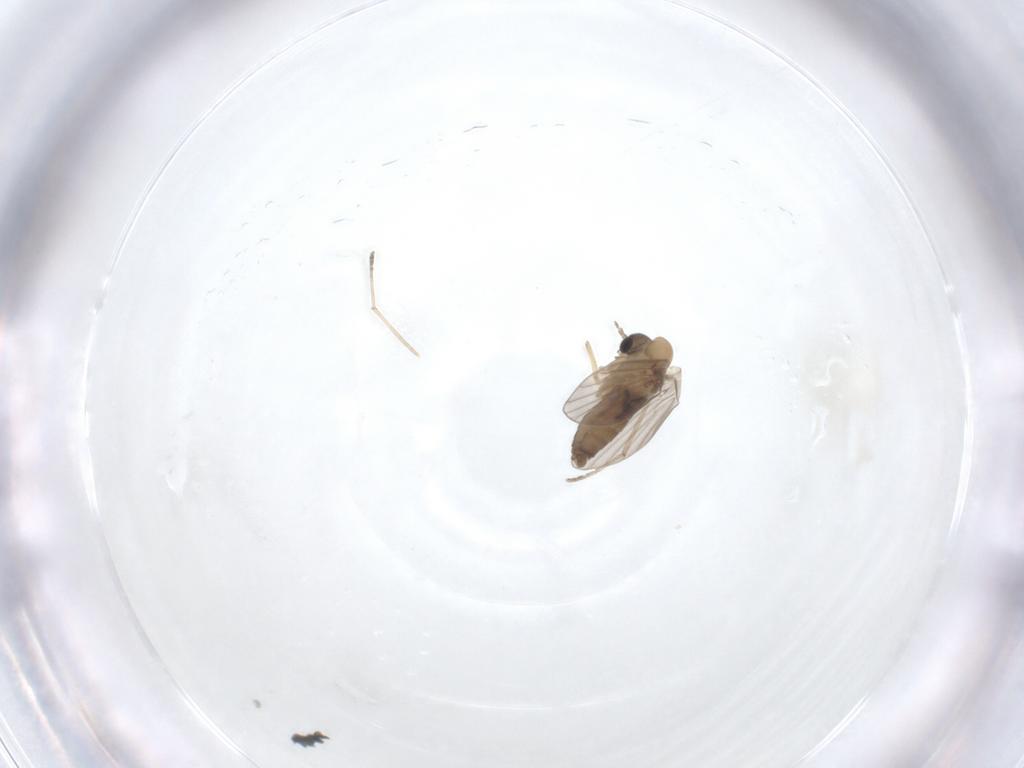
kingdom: Animalia
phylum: Arthropoda
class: Insecta
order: Diptera
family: Psychodidae
